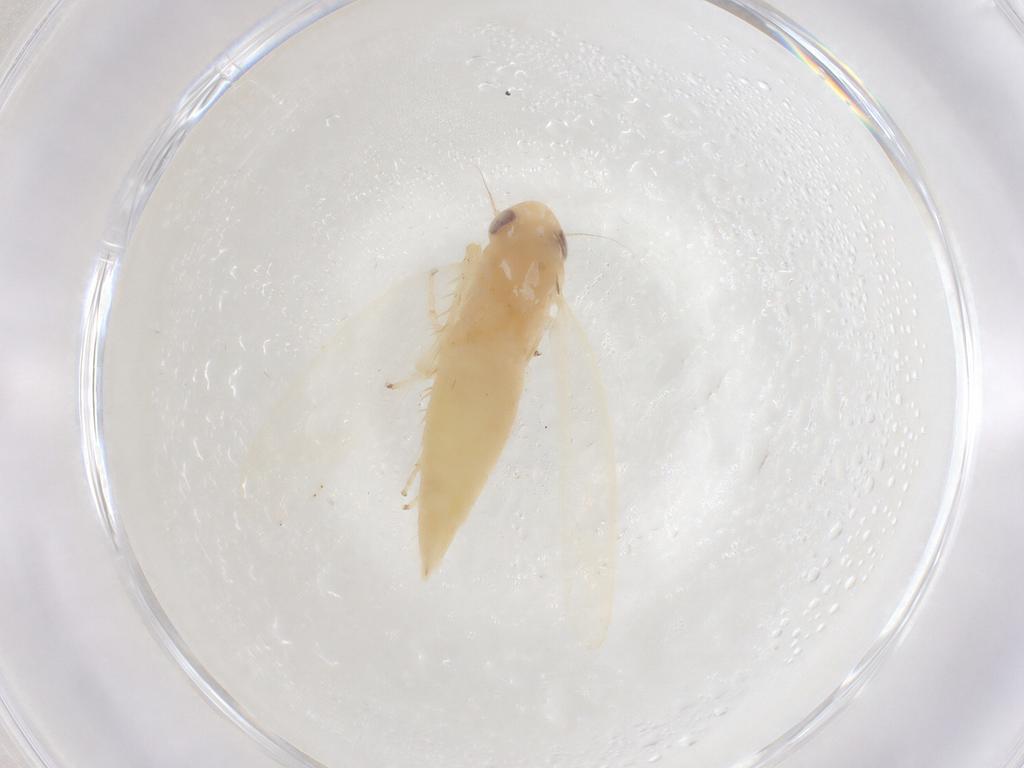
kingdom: Animalia
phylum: Arthropoda
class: Insecta
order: Hemiptera
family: Cicadellidae
